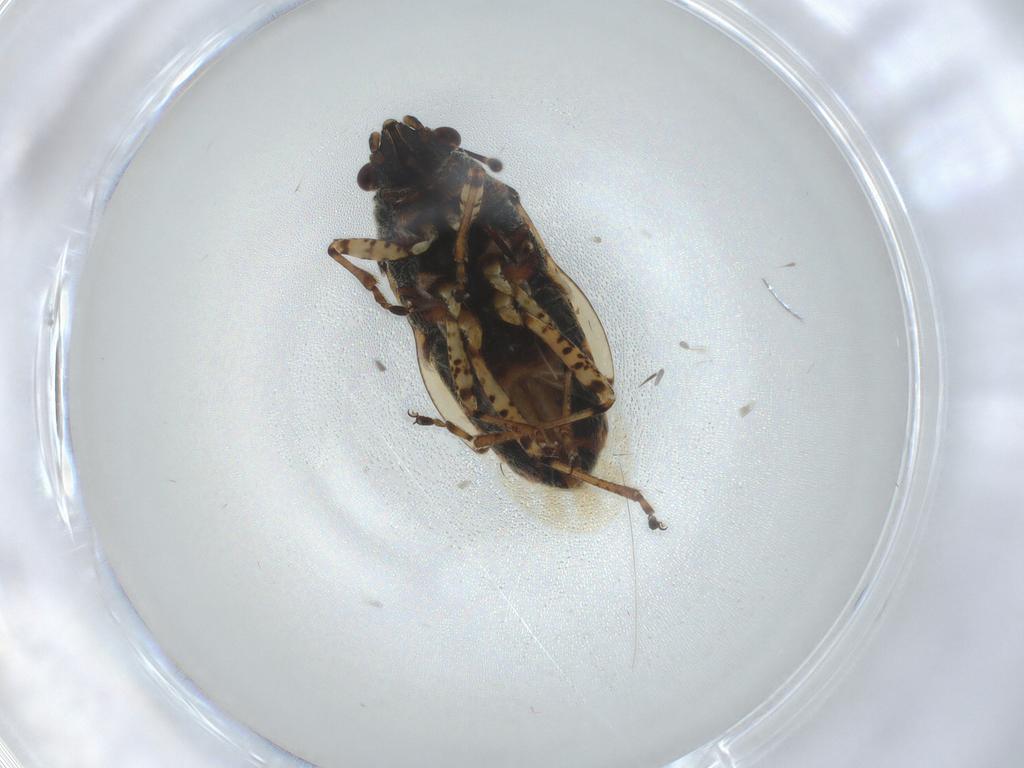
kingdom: Animalia
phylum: Arthropoda
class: Insecta
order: Hemiptera
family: Lygaeidae
